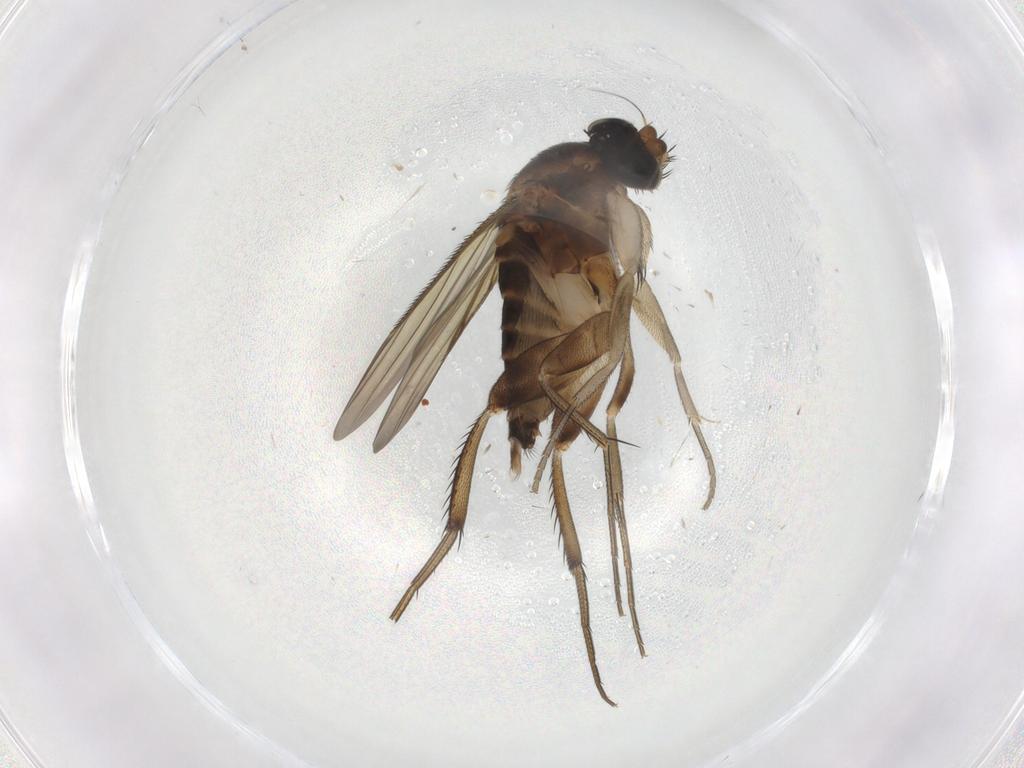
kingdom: Animalia
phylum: Arthropoda
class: Insecta
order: Diptera
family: Phoridae
